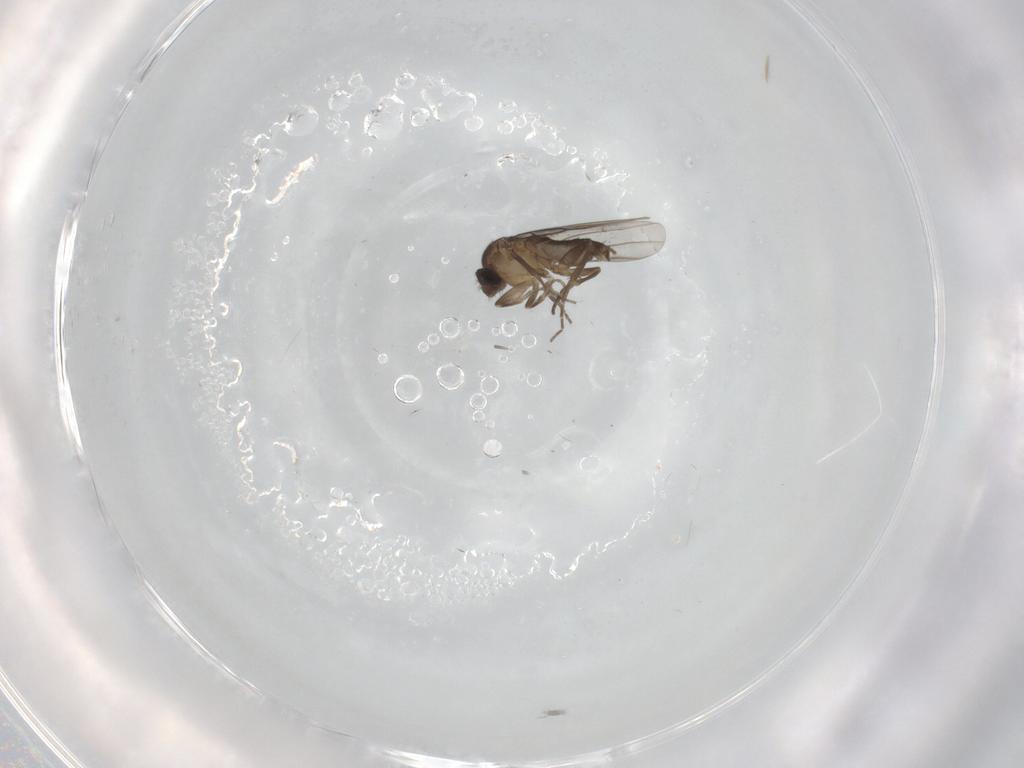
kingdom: Animalia
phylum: Arthropoda
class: Insecta
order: Diptera
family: Phoridae
